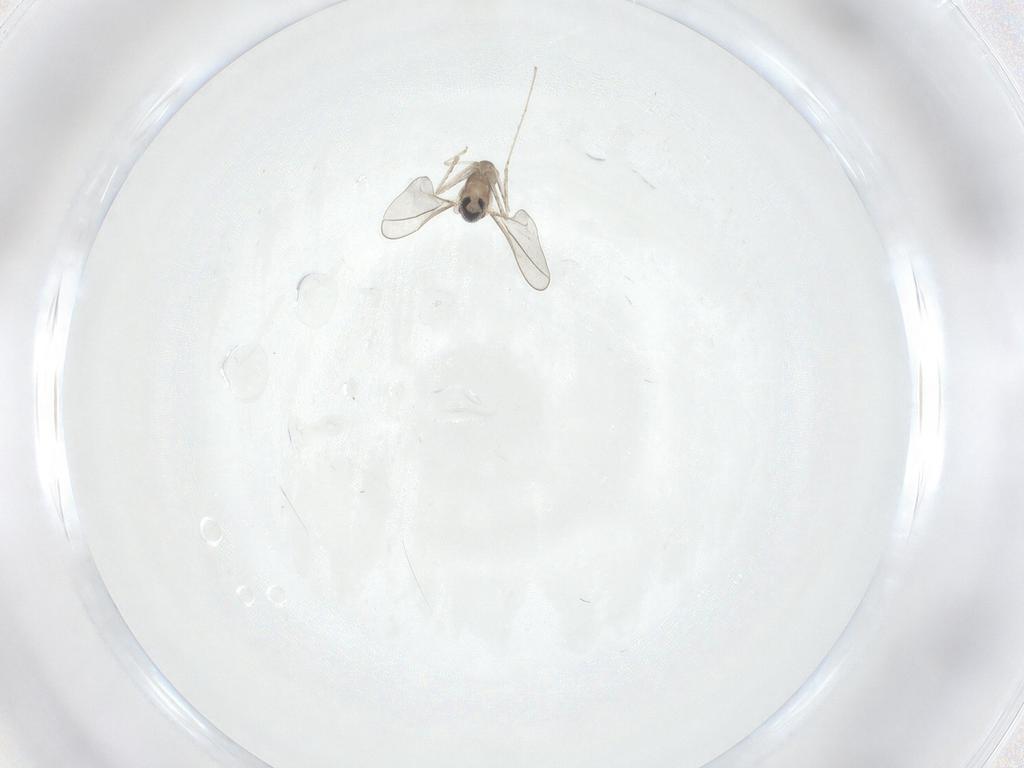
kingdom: Animalia
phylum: Arthropoda
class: Insecta
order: Diptera
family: Cecidomyiidae
